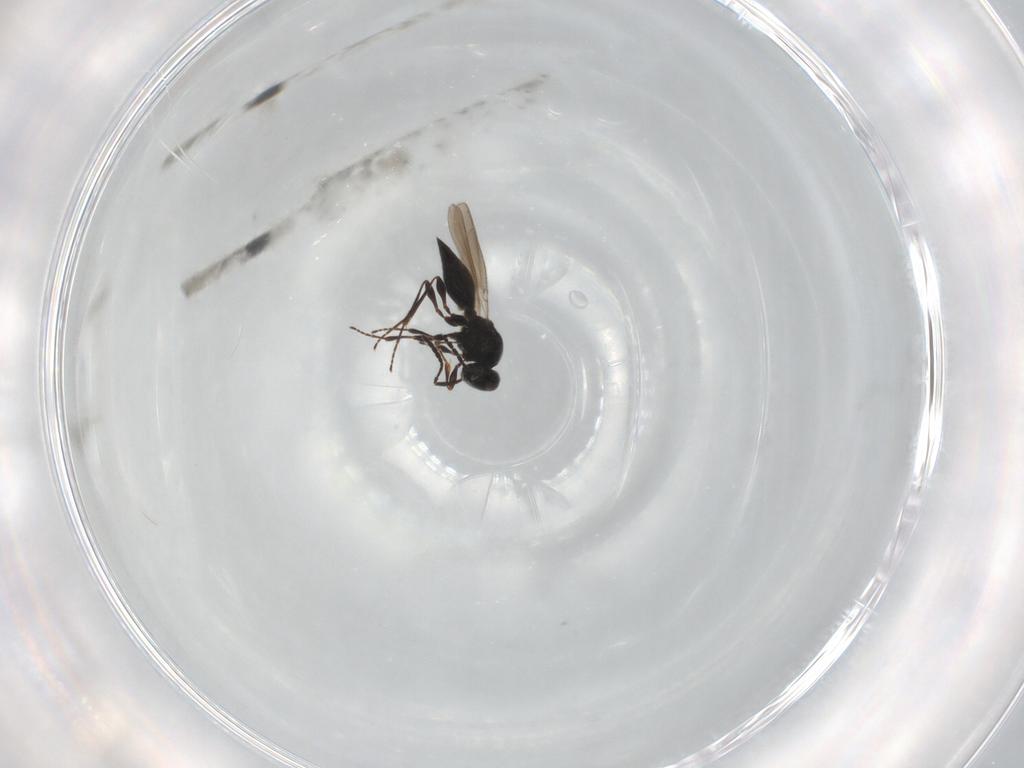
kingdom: Animalia
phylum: Arthropoda
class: Insecta
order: Hymenoptera
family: Platygastridae
